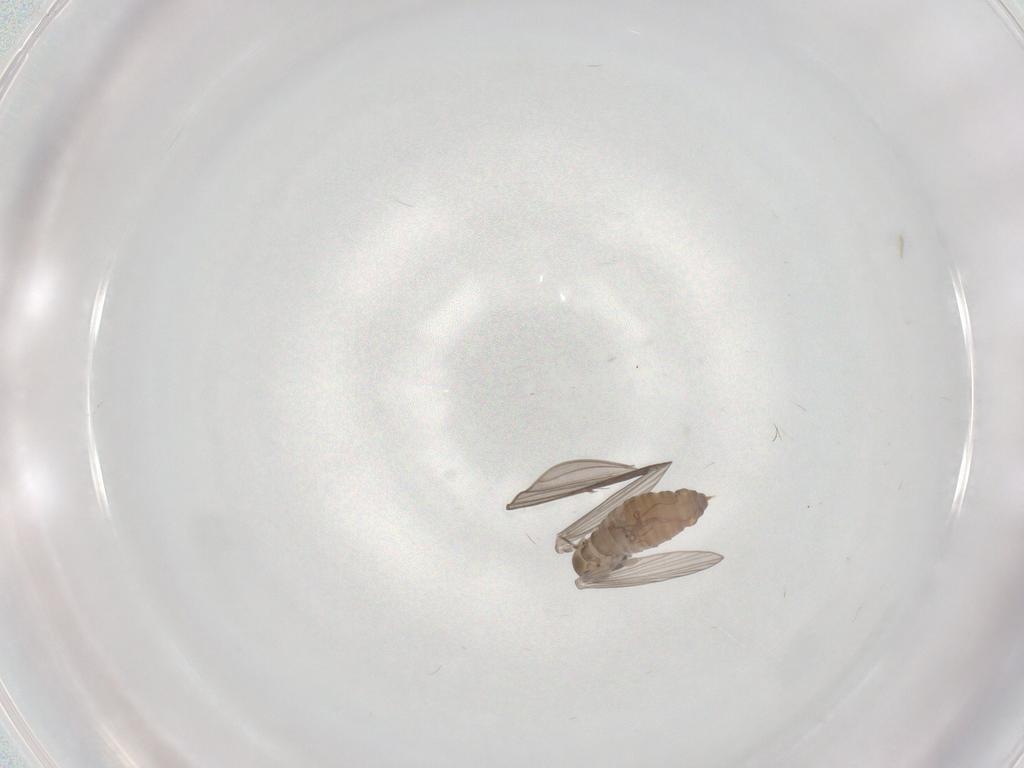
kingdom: Animalia
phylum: Arthropoda
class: Insecta
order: Diptera
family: Psychodidae
